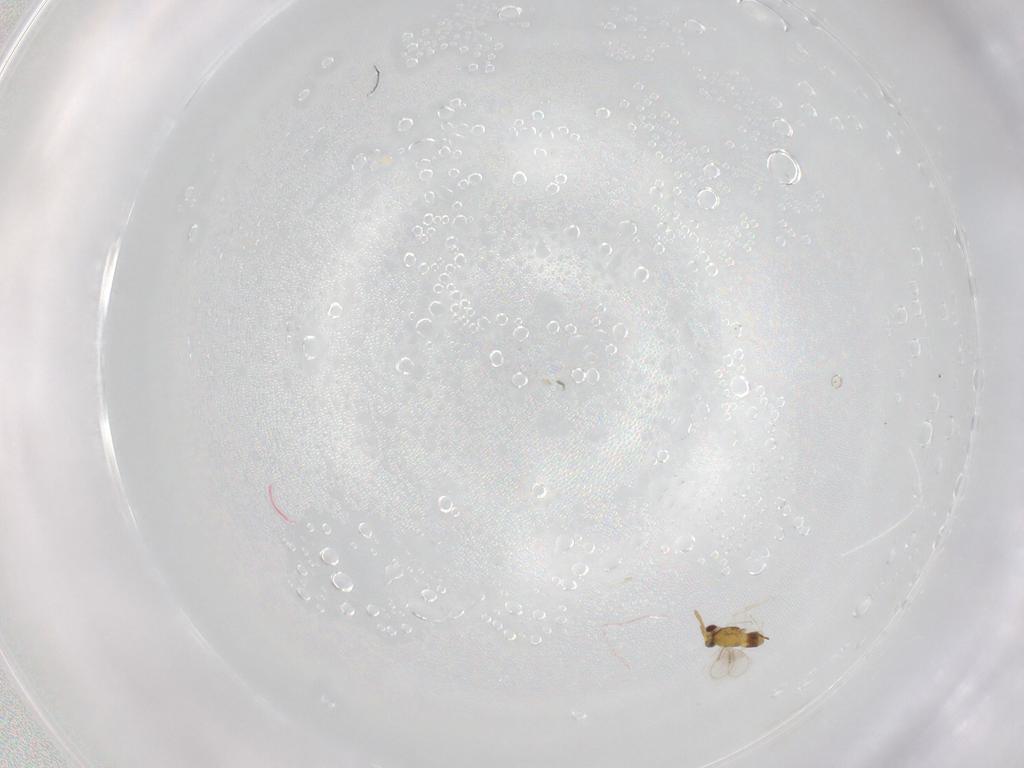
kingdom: Animalia
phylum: Arthropoda
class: Insecta
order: Hymenoptera
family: Aphelinidae
